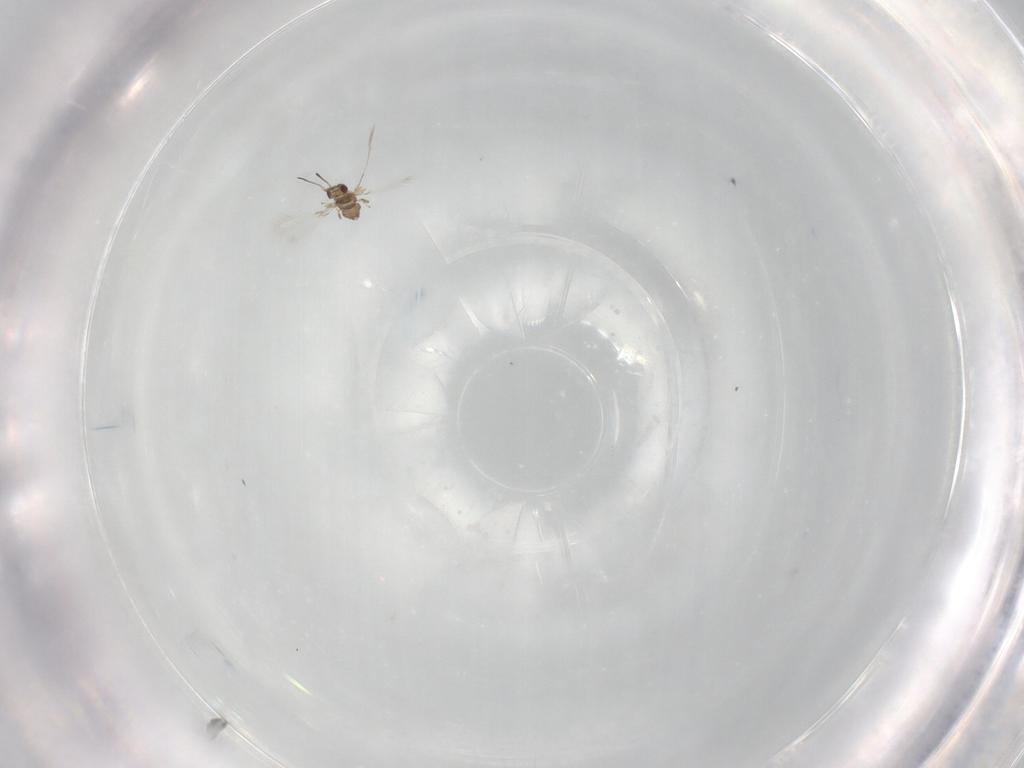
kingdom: Animalia
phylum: Arthropoda
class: Insecta
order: Hymenoptera
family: Mymaridae
